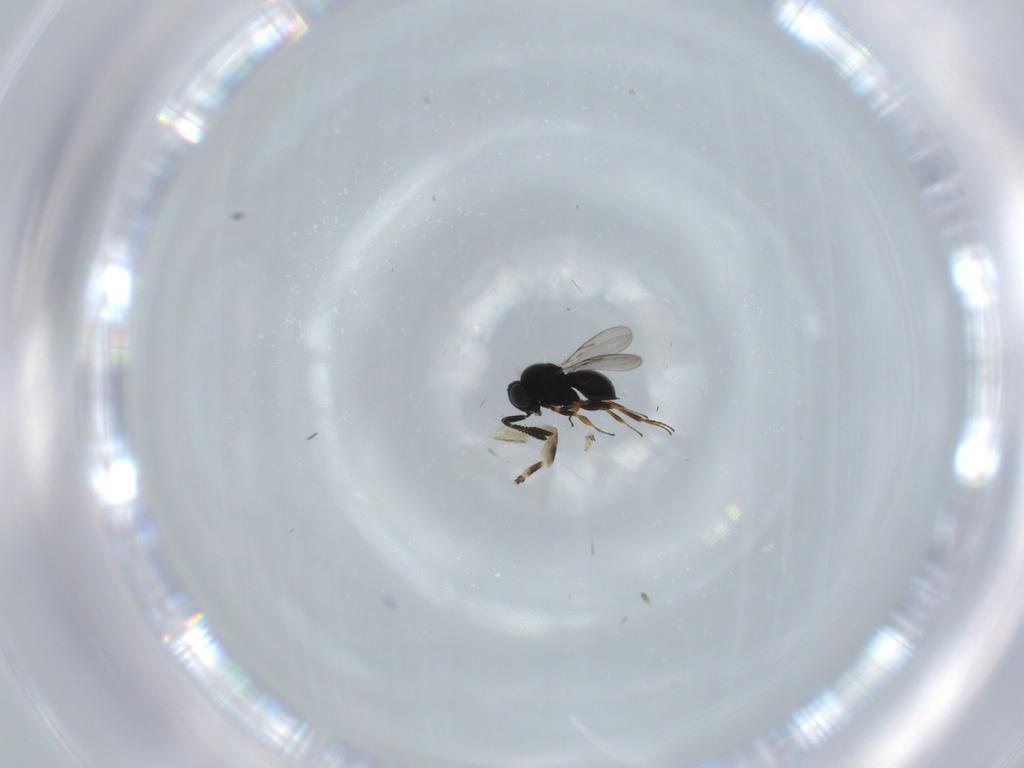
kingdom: Animalia
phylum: Arthropoda
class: Insecta
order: Hymenoptera
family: Scelionidae
